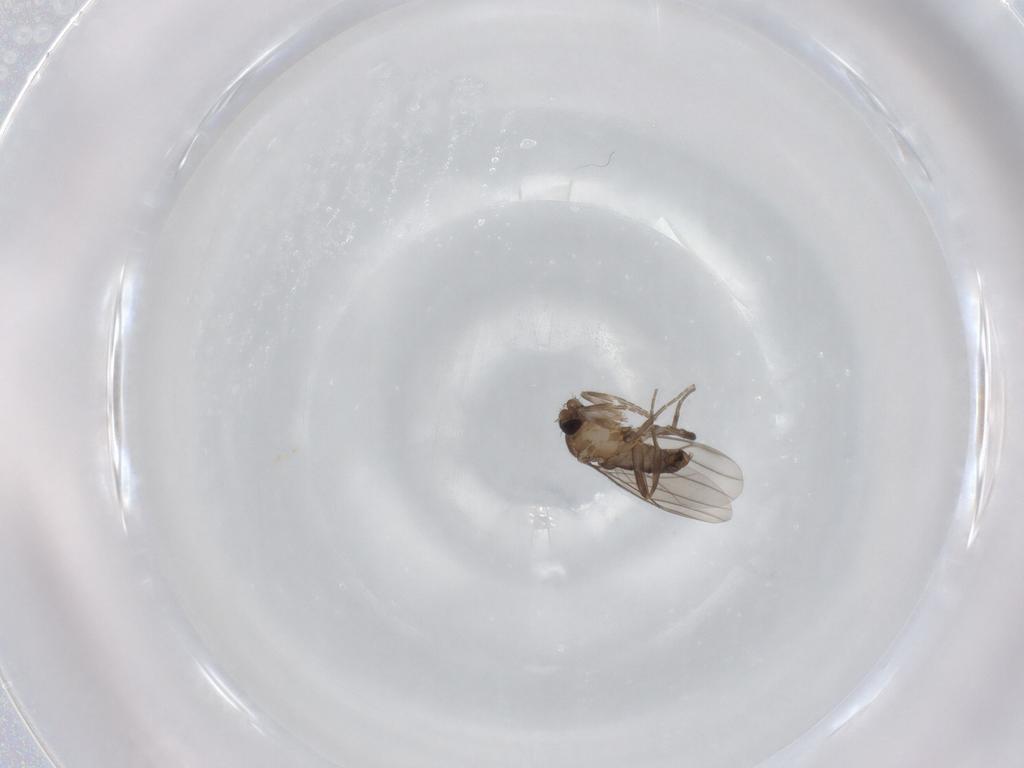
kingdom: Animalia
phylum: Arthropoda
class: Insecta
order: Diptera
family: Phoridae
